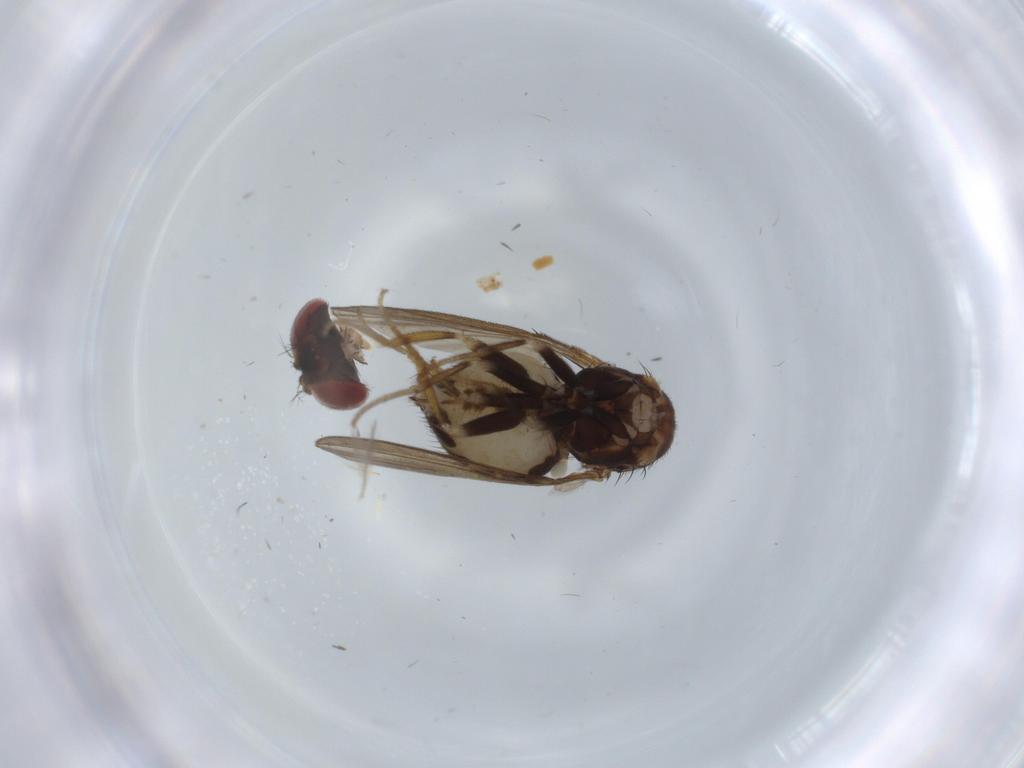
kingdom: Animalia
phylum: Arthropoda
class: Insecta
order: Diptera
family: Drosophilidae
